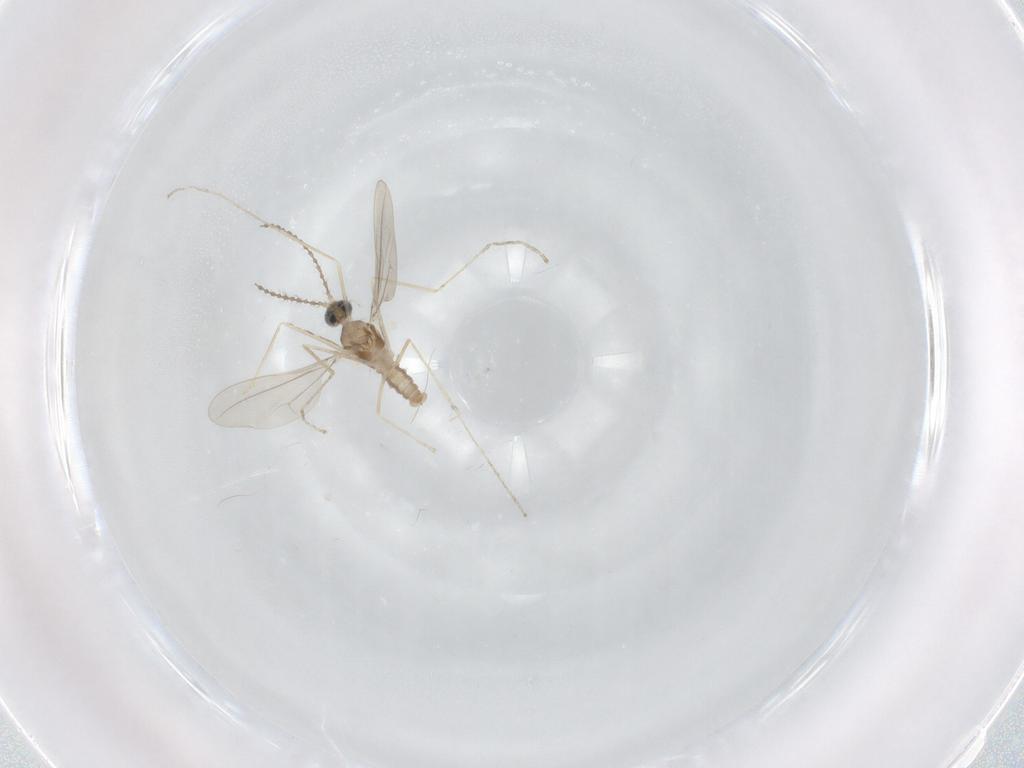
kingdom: Animalia
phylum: Arthropoda
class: Insecta
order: Diptera
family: Cecidomyiidae
